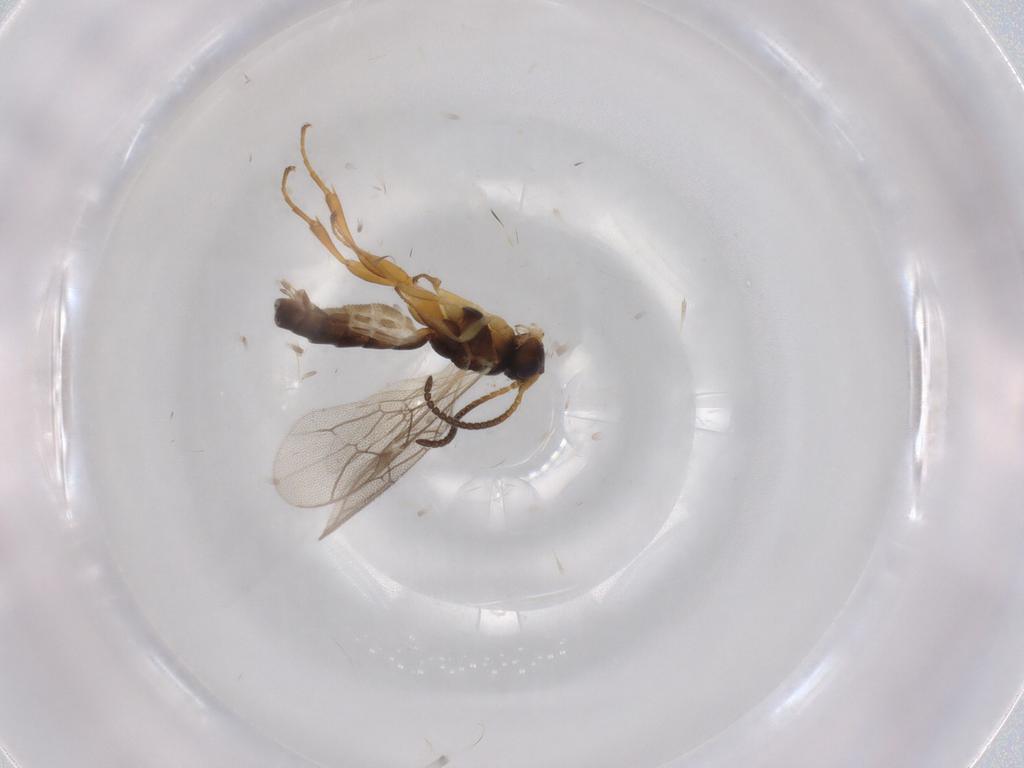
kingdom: Animalia
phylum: Arthropoda
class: Insecta
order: Hymenoptera
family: Ichneumonidae
